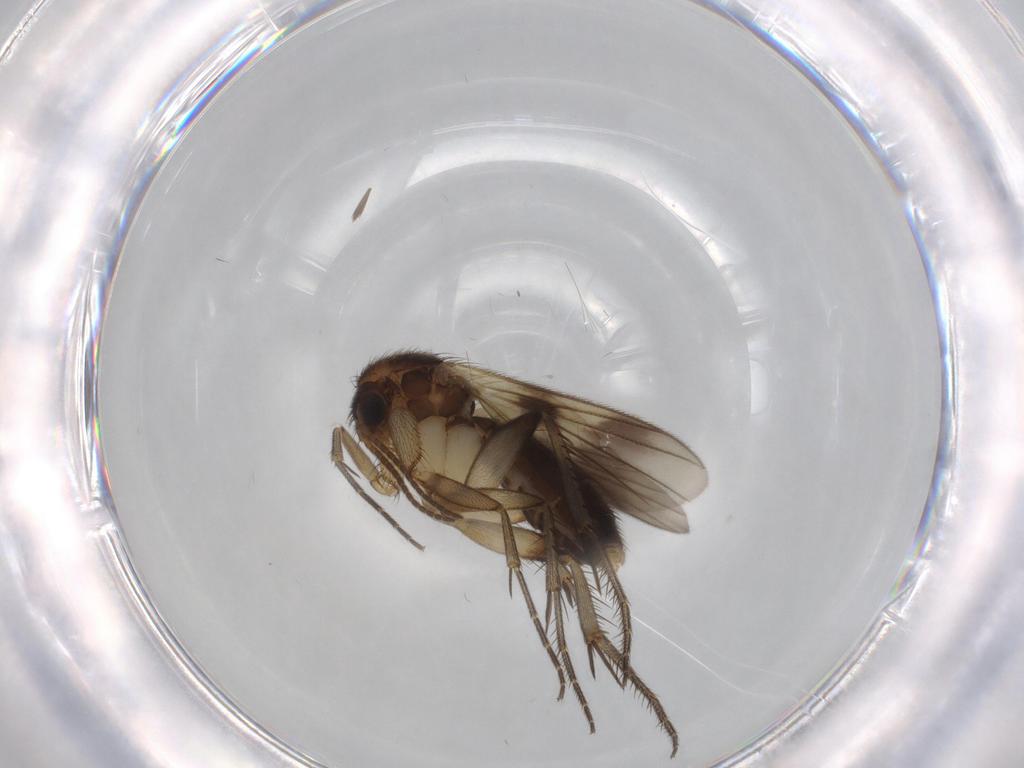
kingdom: Animalia
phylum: Arthropoda
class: Insecta
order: Diptera
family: Mycetophilidae
